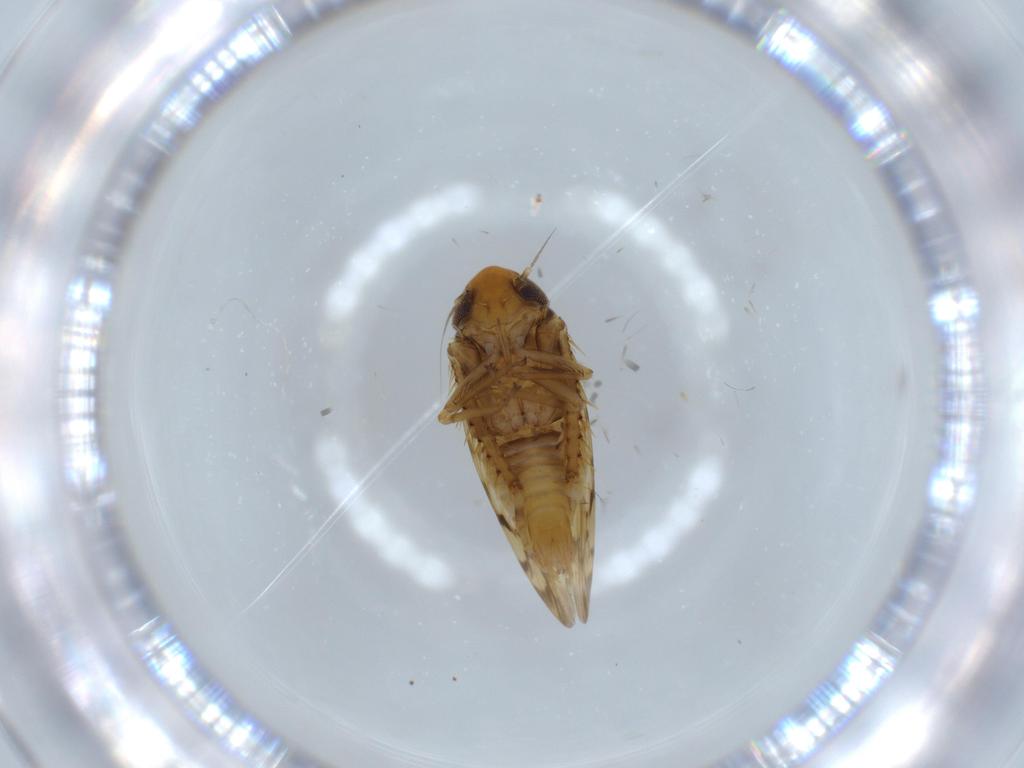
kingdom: Animalia
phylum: Arthropoda
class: Insecta
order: Hemiptera
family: Cicadellidae
